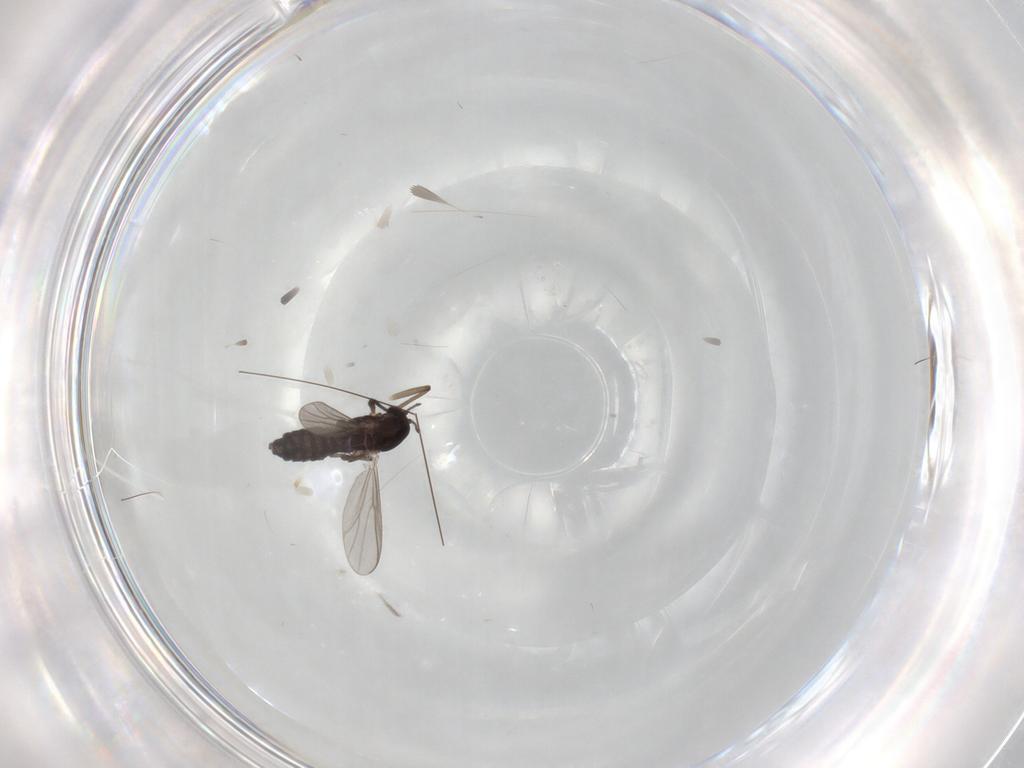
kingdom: Animalia
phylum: Arthropoda
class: Insecta
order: Diptera
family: Chironomidae
